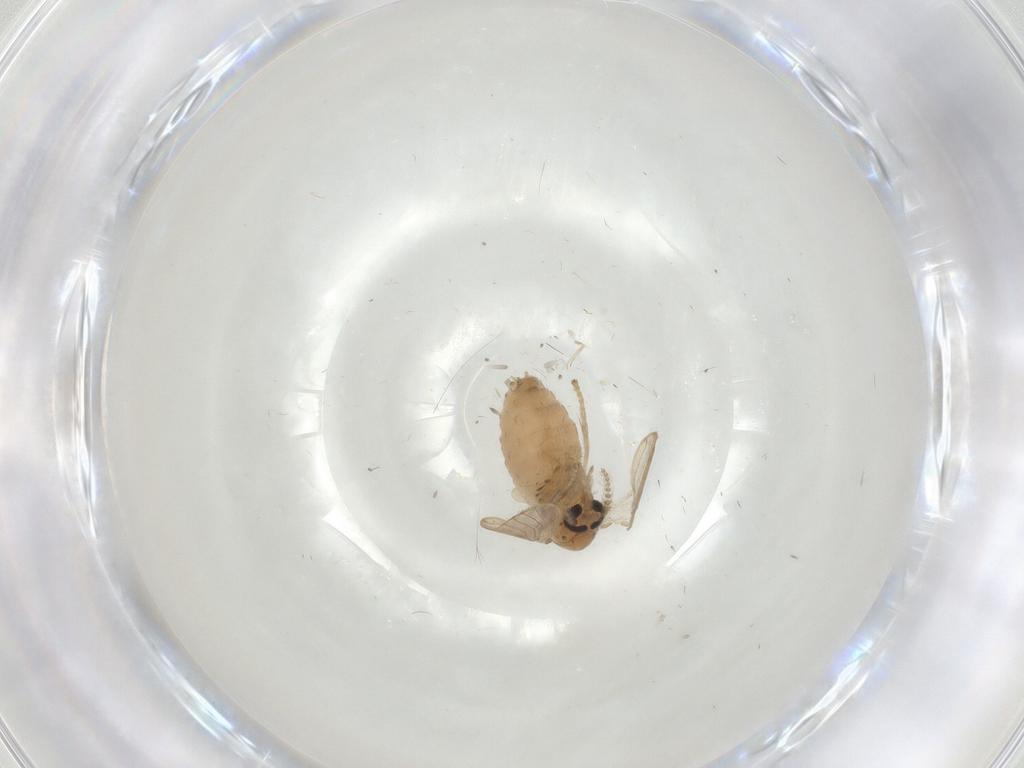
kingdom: Animalia
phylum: Arthropoda
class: Insecta
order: Diptera
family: Psychodidae
